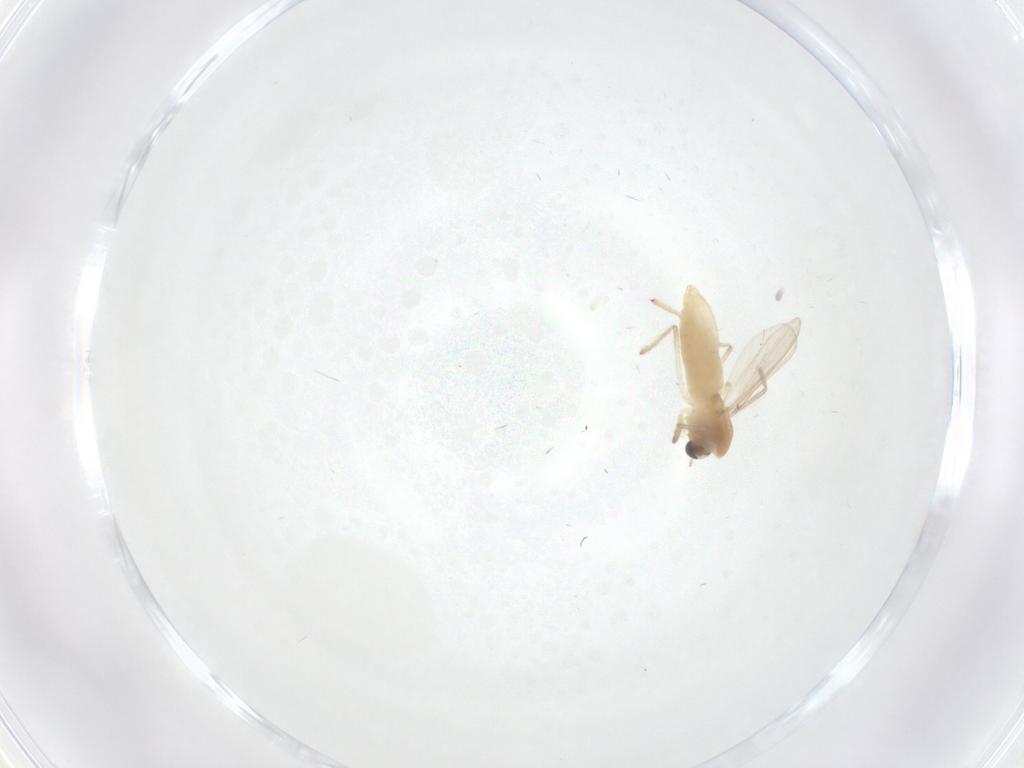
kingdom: Animalia
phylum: Arthropoda
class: Insecta
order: Diptera
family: Chironomidae
